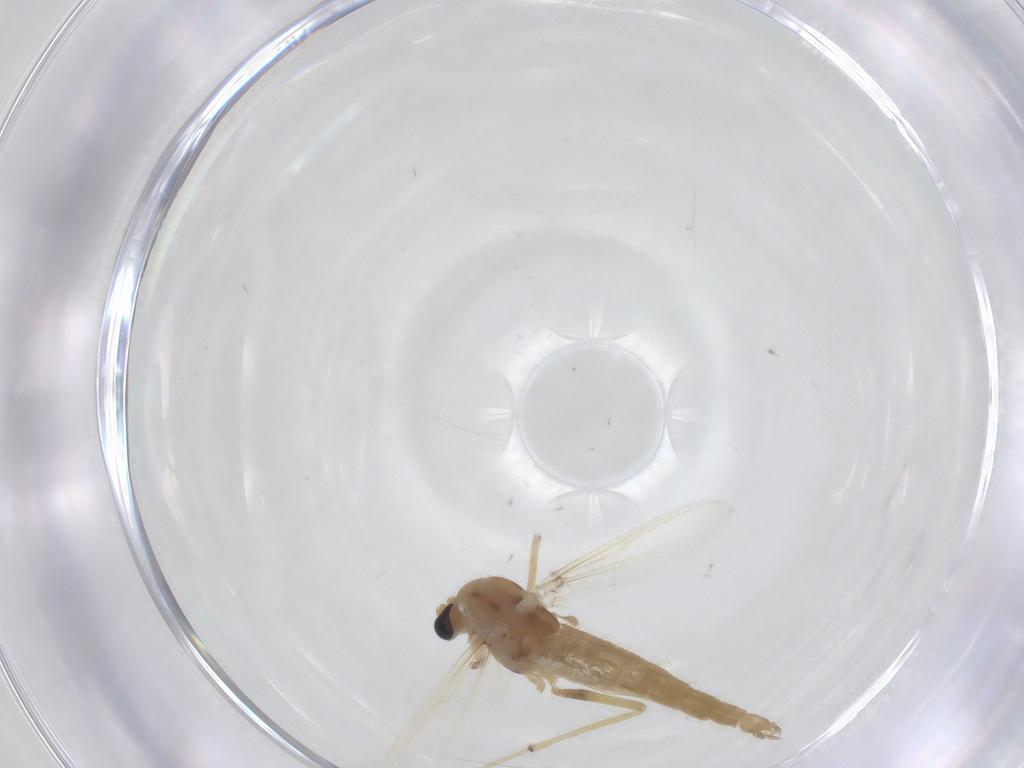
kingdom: Animalia
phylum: Arthropoda
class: Insecta
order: Diptera
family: Chironomidae
